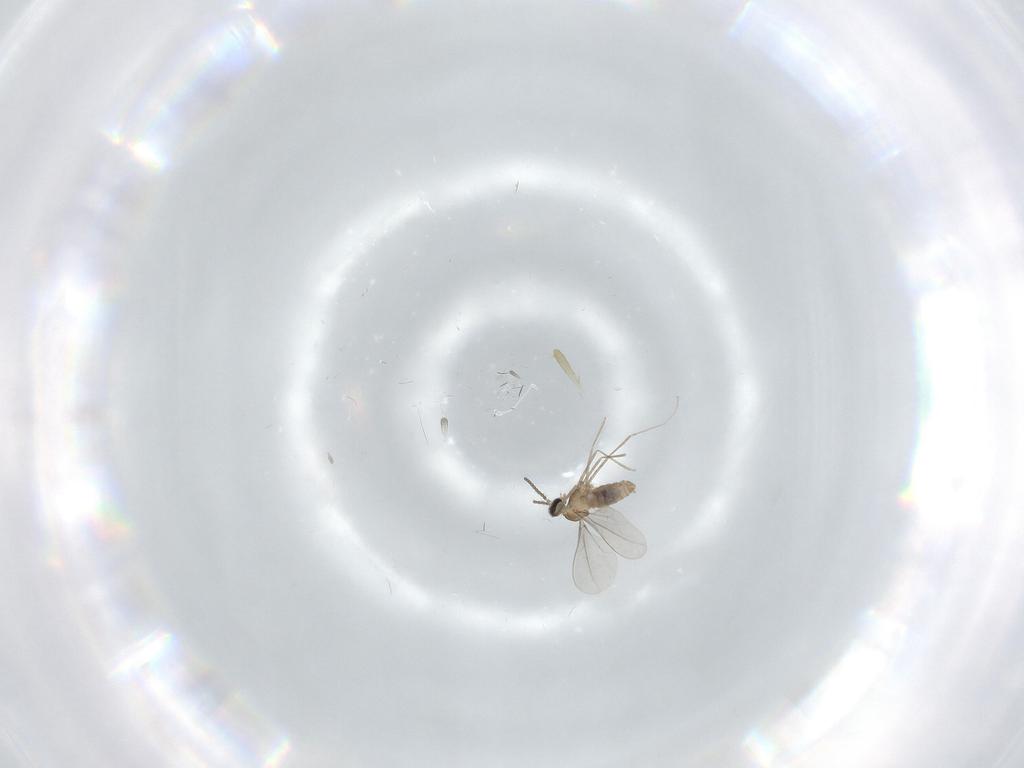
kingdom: Animalia
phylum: Arthropoda
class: Insecta
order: Diptera
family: Cecidomyiidae
